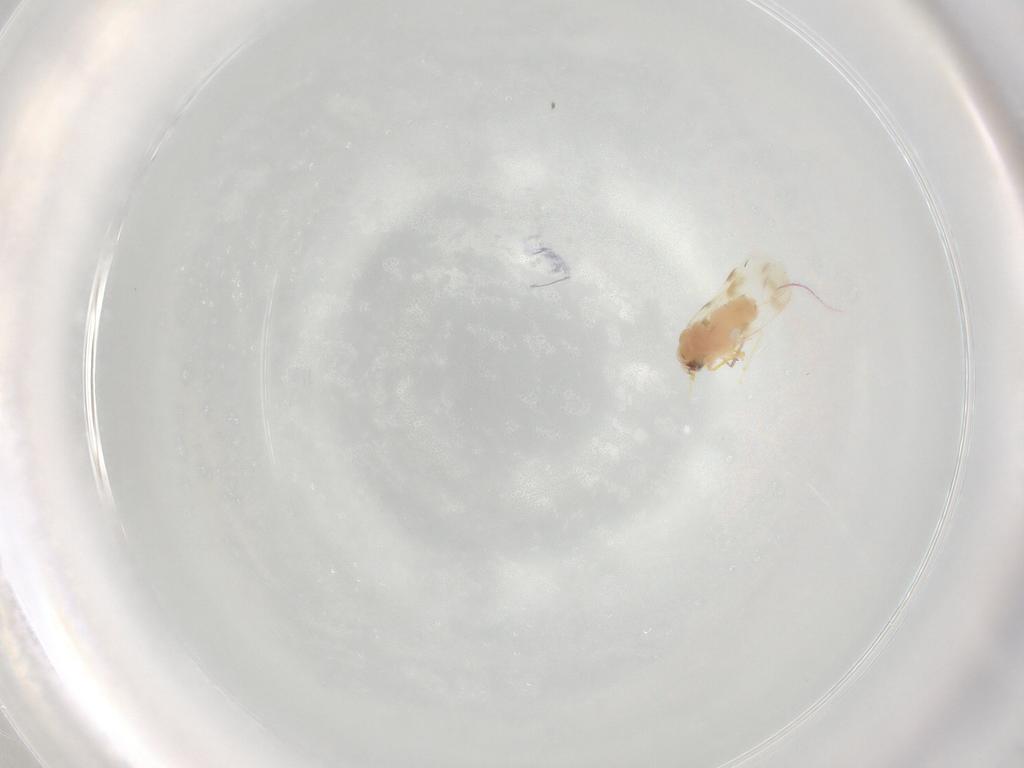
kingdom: Animalia
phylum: Arthropoda
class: Insecta
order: Hemiptera
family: Aleyrodidae
